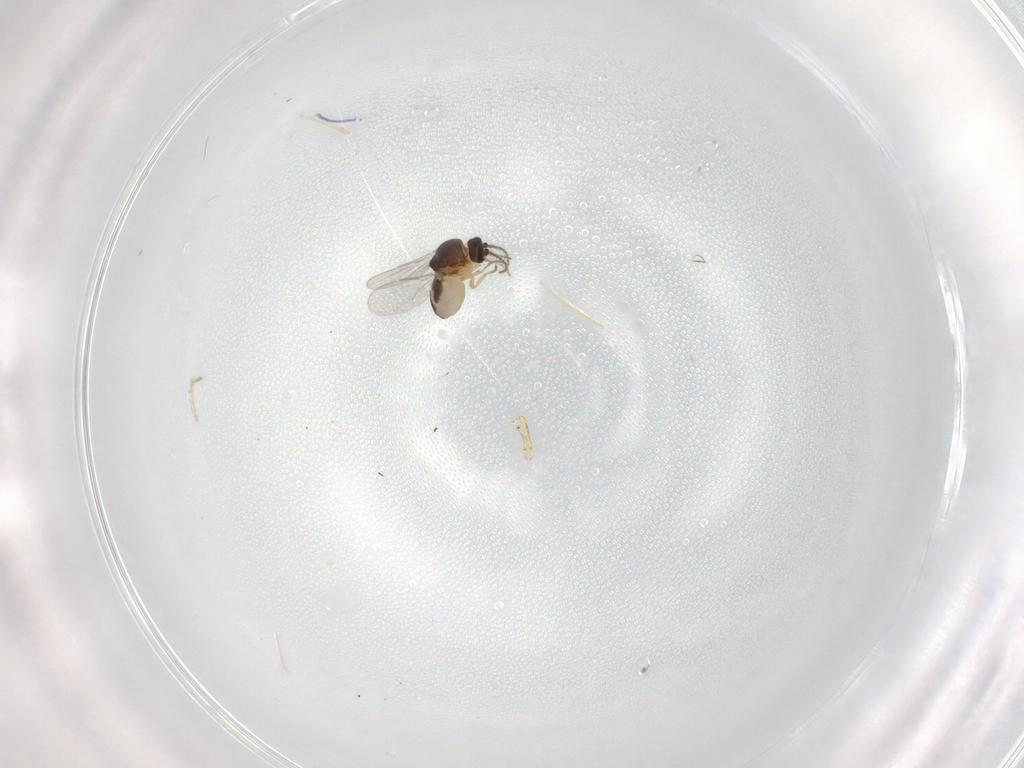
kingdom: Animalia
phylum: Arthropoda
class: Insecta
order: Diptera
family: Ceratopogonidae
